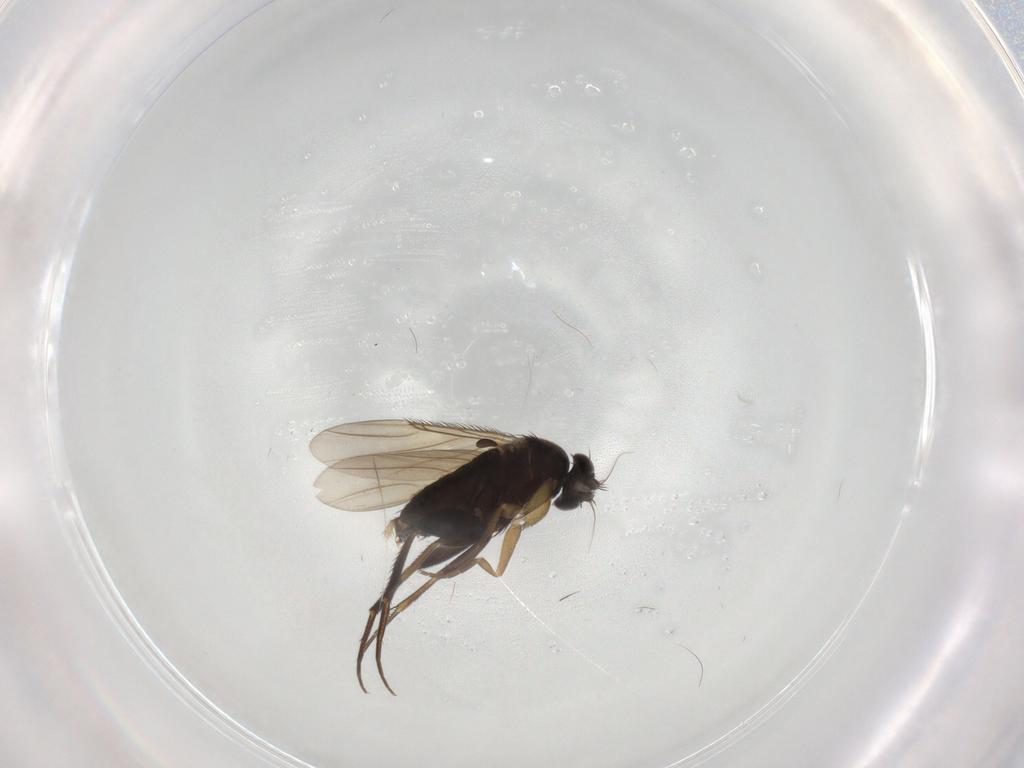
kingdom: Animalia
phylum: Arthropoda
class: Insecta
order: Diptera
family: Phoridae
